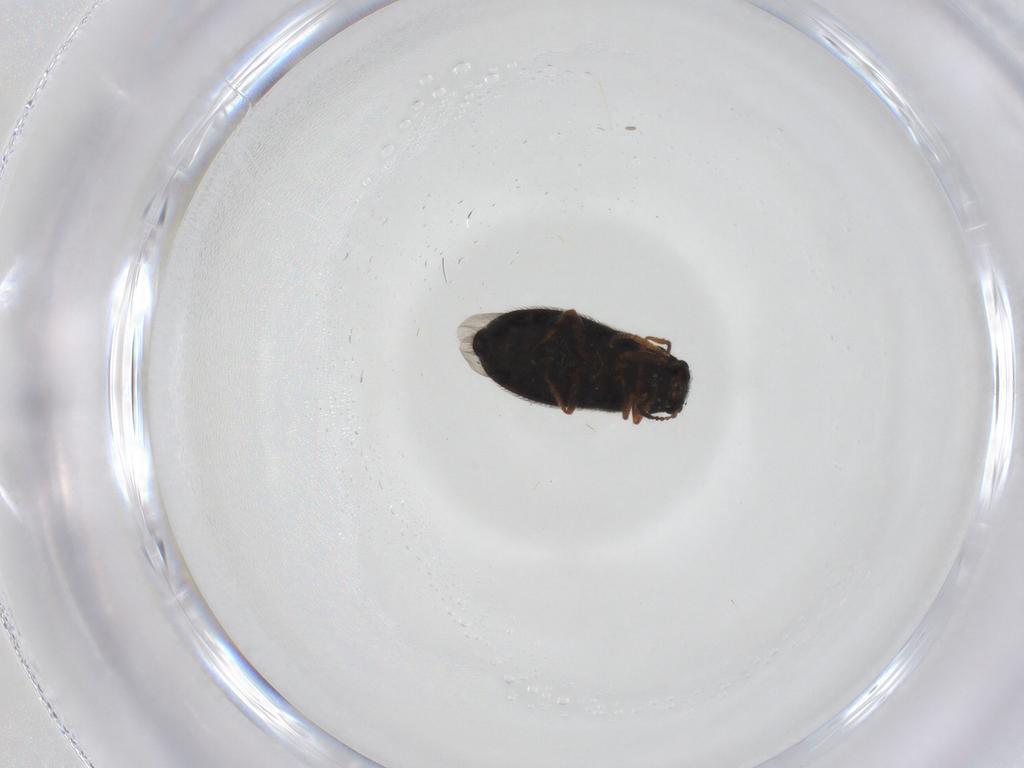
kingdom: Animalia
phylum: Arthropoda
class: Insecta
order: Coleoptera
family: Melyridae
